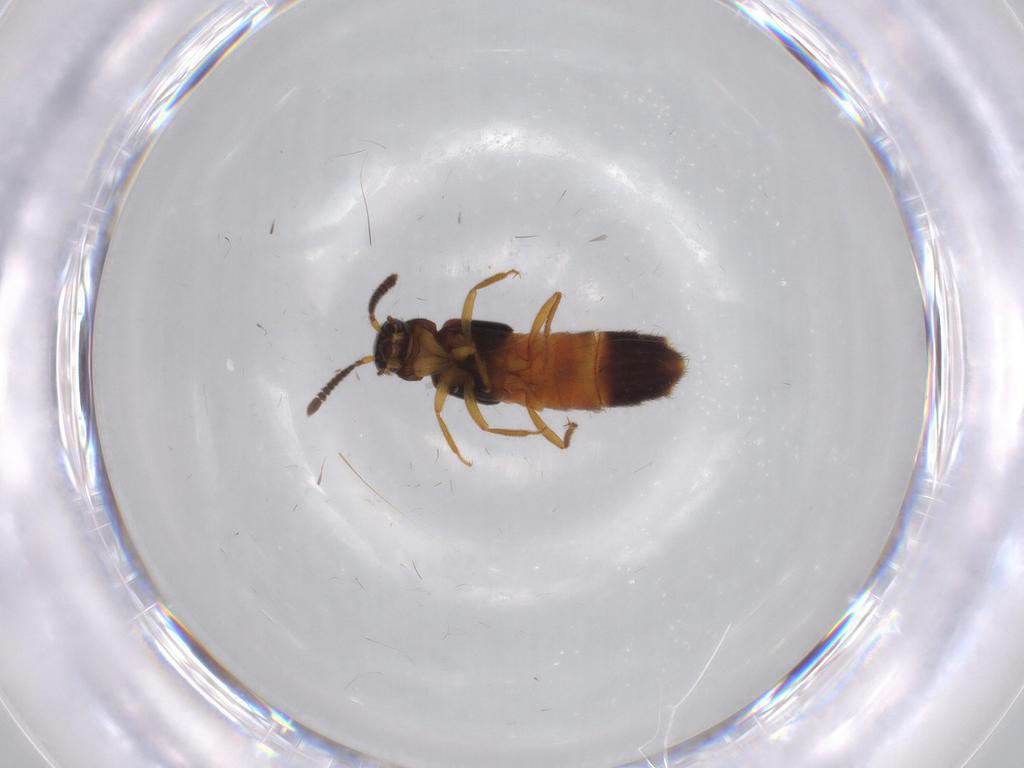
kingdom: Animalia
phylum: Arthropoda
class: Insecta
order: Coleoptera
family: Staphylinidae
